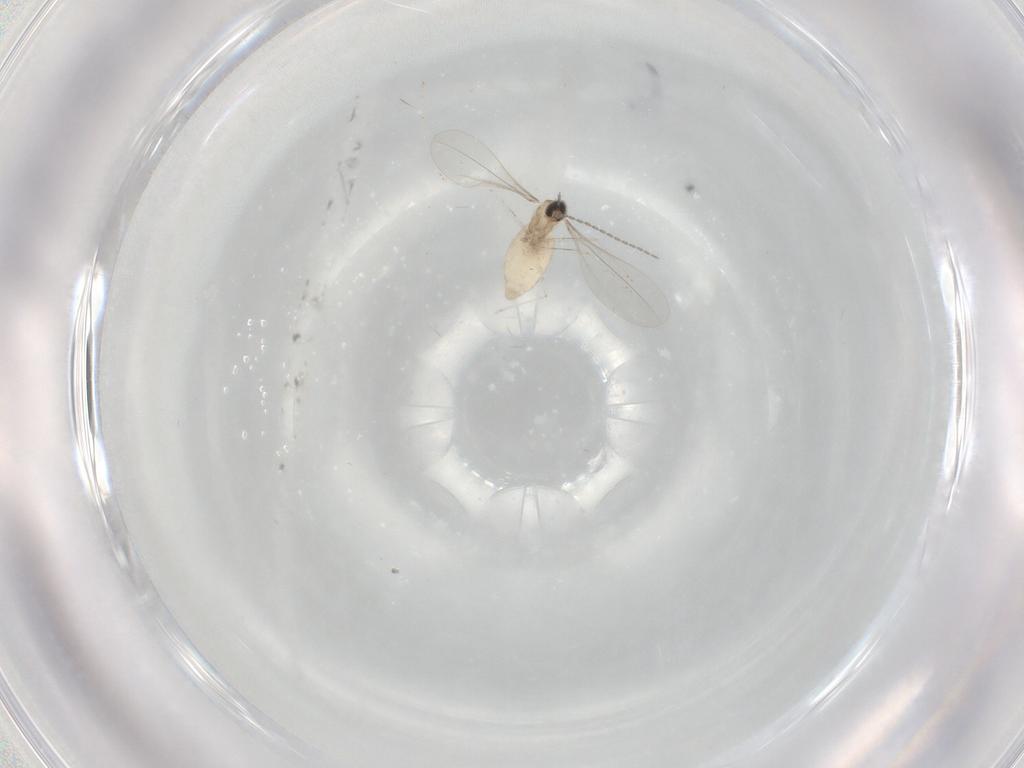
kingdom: Animalia
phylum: Arthropoda
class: Insecta
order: Diptera
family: Cecidomyiidae
